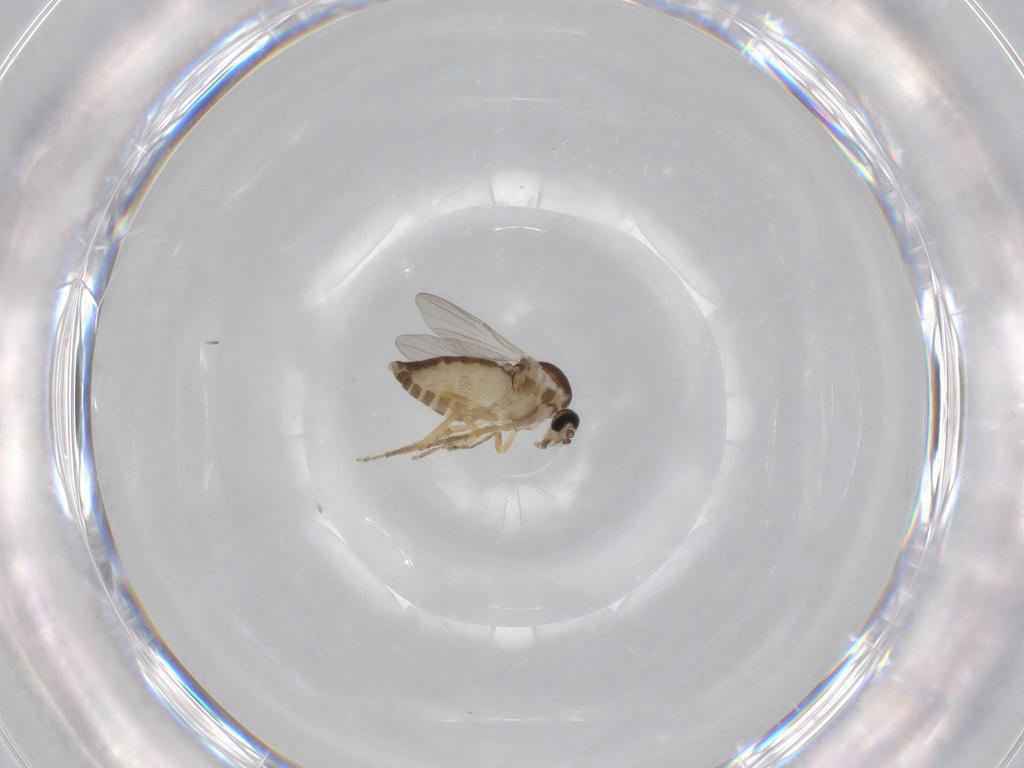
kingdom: Animalia
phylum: Arthropoda
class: Insecta
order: Diptera
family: Ceratopogonidae
